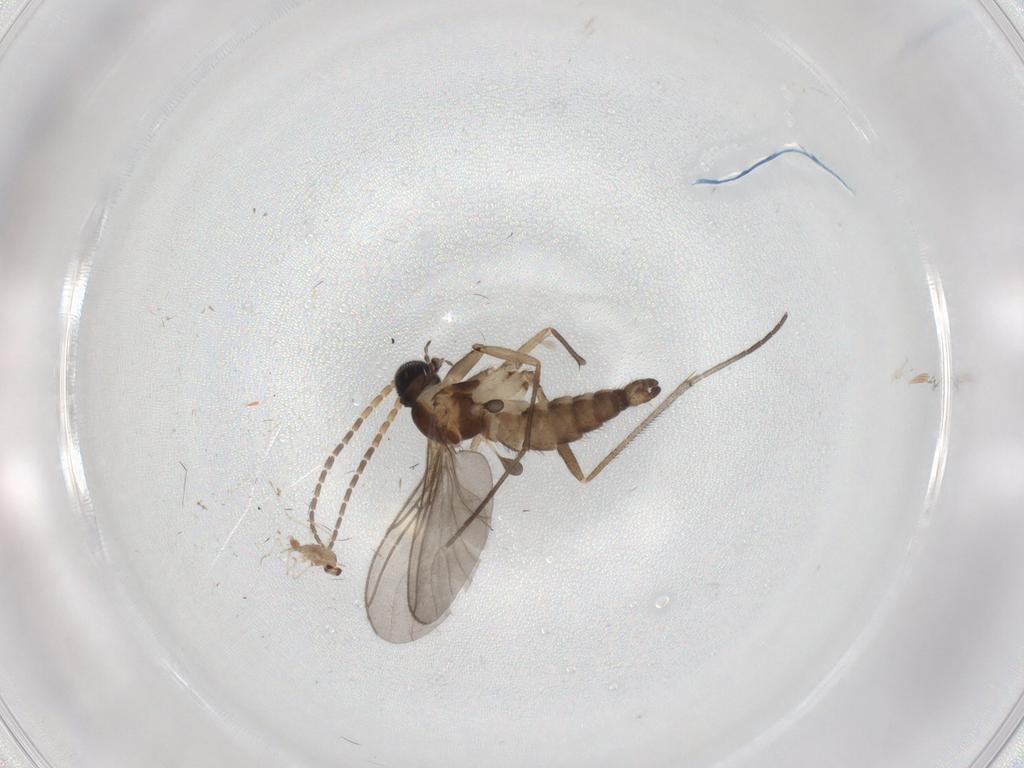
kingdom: Animalia
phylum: Arthropoda
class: Insecta
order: Diptera
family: Sciaridae
